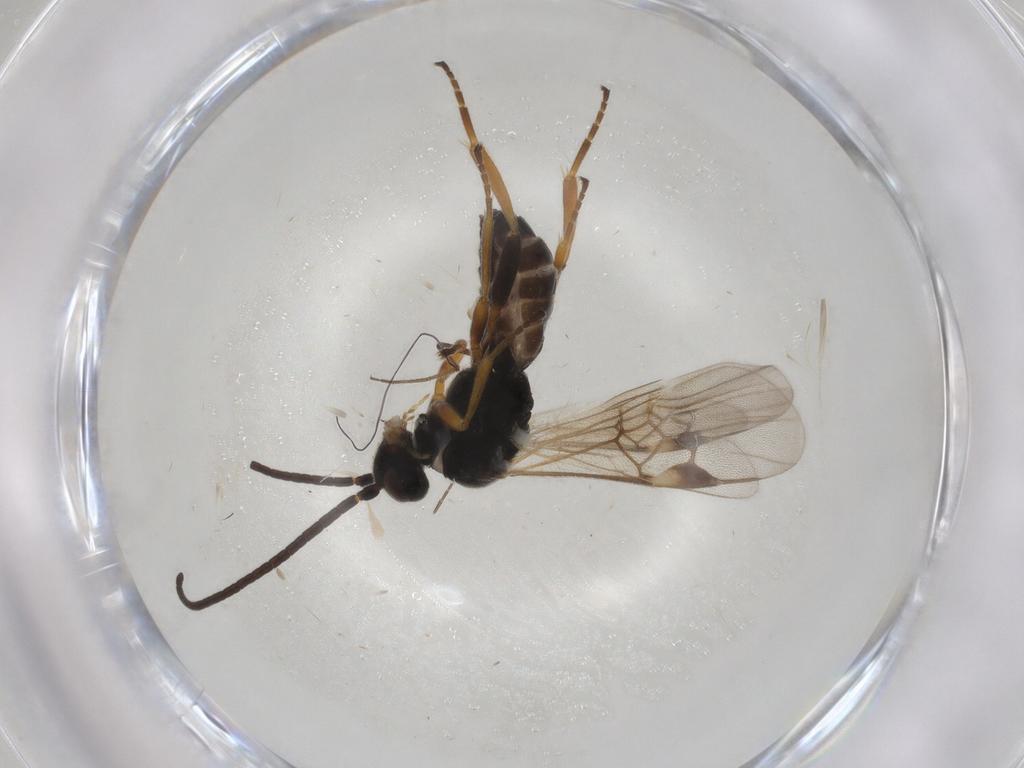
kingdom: Animalia
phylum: Arthropoda
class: Insecta
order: Hymenoptera
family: Braconidae
